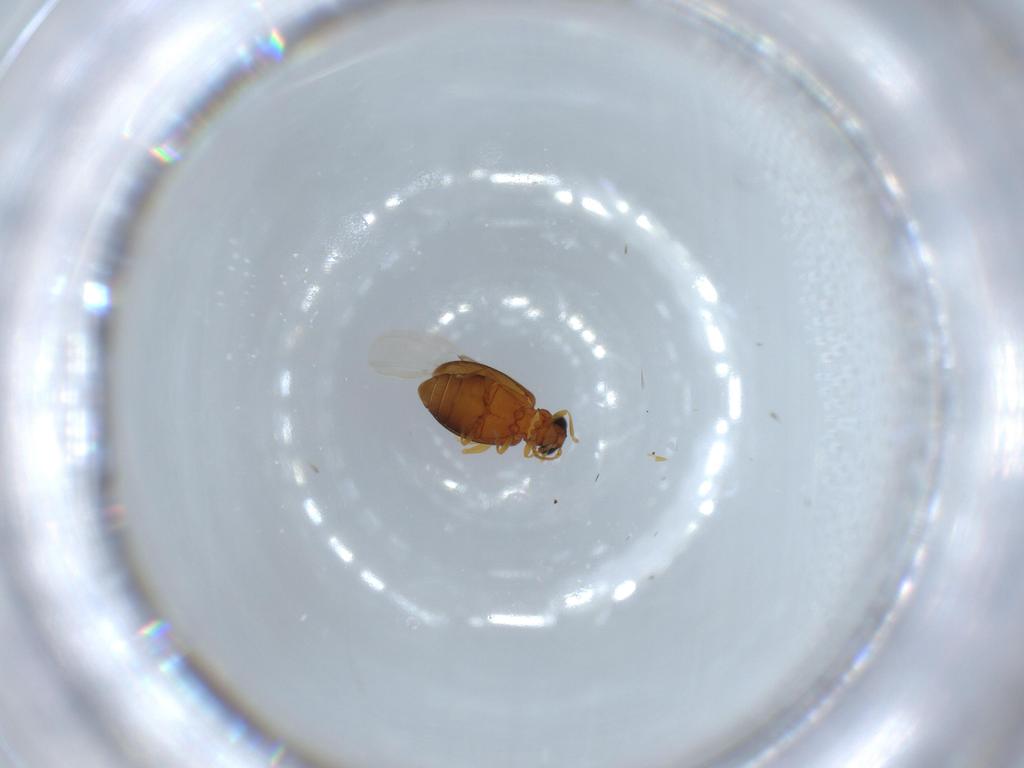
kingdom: Animalia
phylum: Arthropoda
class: Insecta
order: Coleoptera
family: Aderidae
